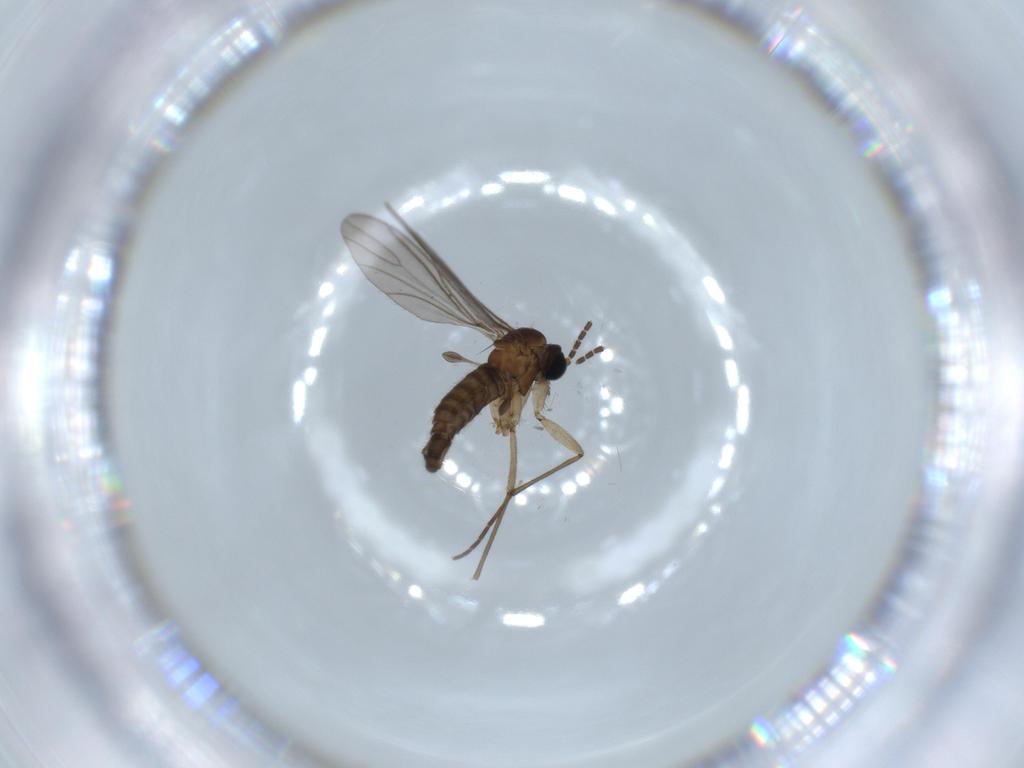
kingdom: Animalia
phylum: Arthropoda
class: Insecta
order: Diptera
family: Sciaridae
